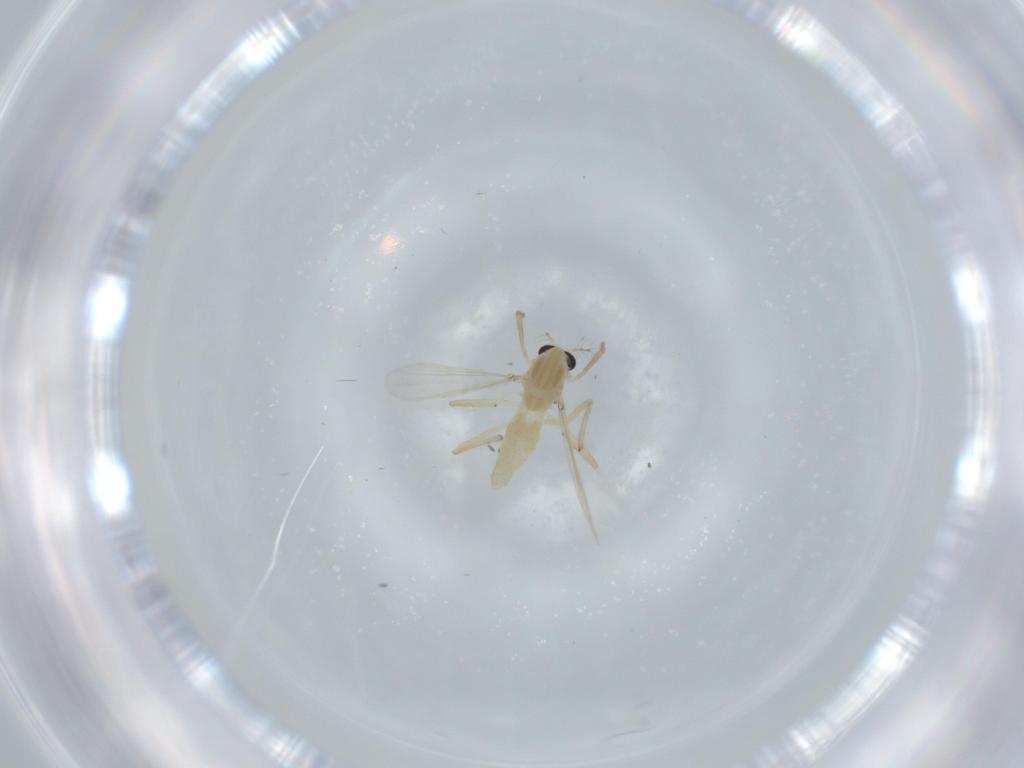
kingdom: Animalia
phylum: Arthropoda
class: Insecta
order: Diptera
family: Chironomidae
